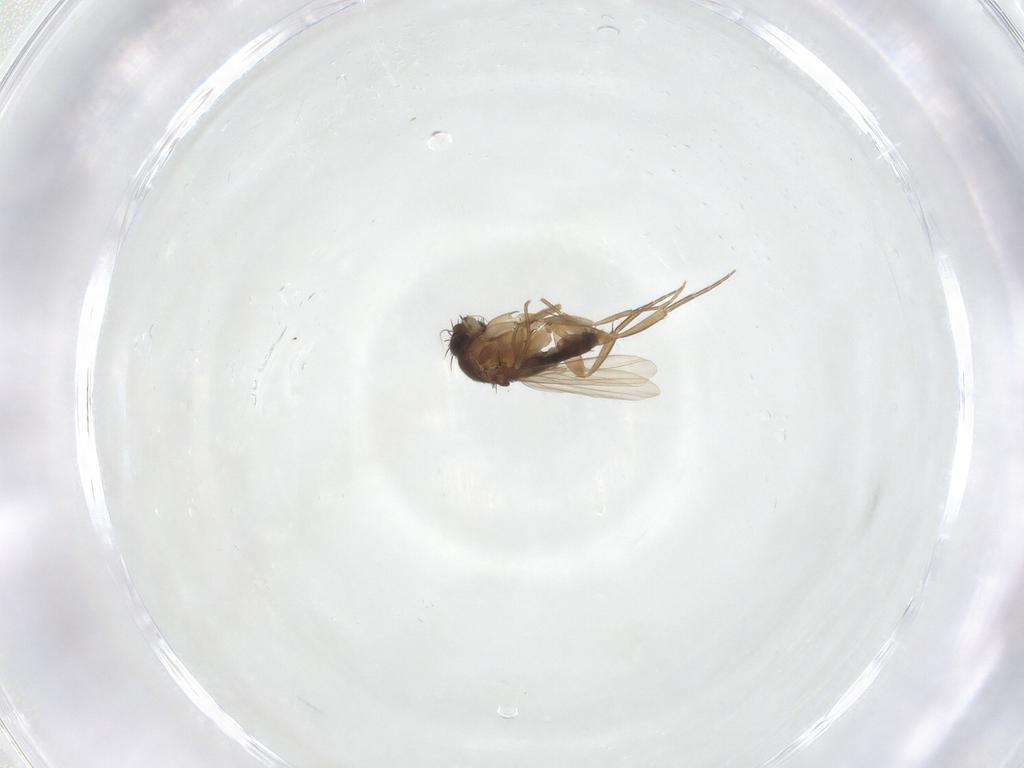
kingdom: Animalia
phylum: Arthropoda
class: Insecta
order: Diptera
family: Phoridae
